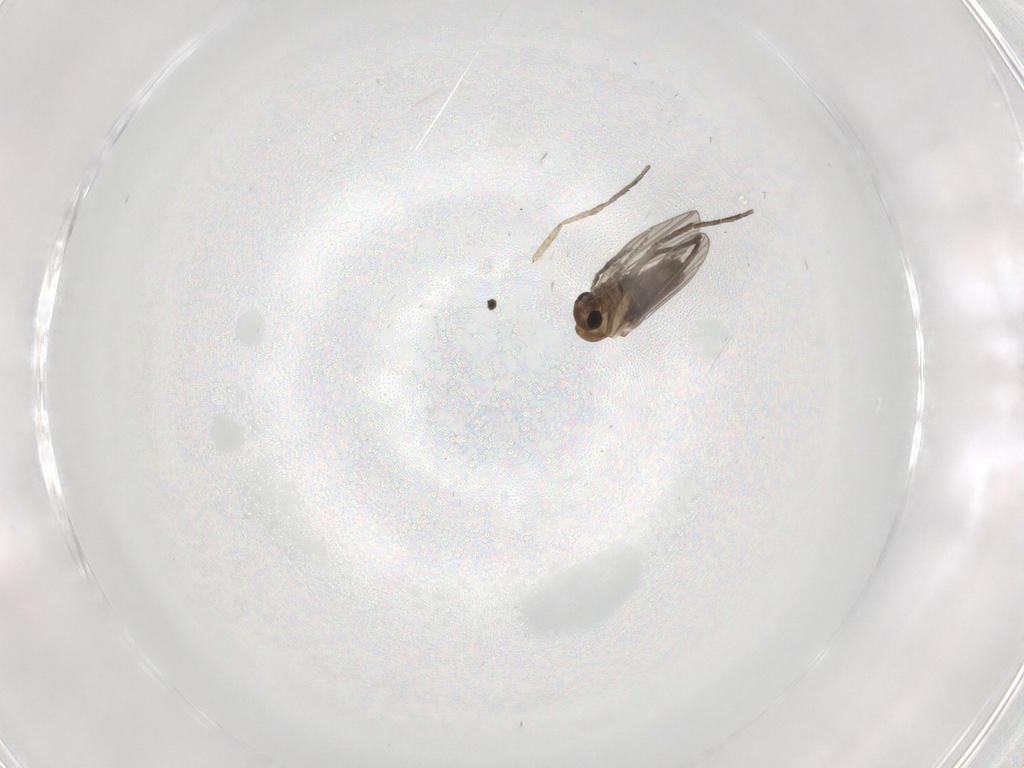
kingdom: Animalia
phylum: Arthropoda
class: Insecta
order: Diptera
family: Psychodidae
